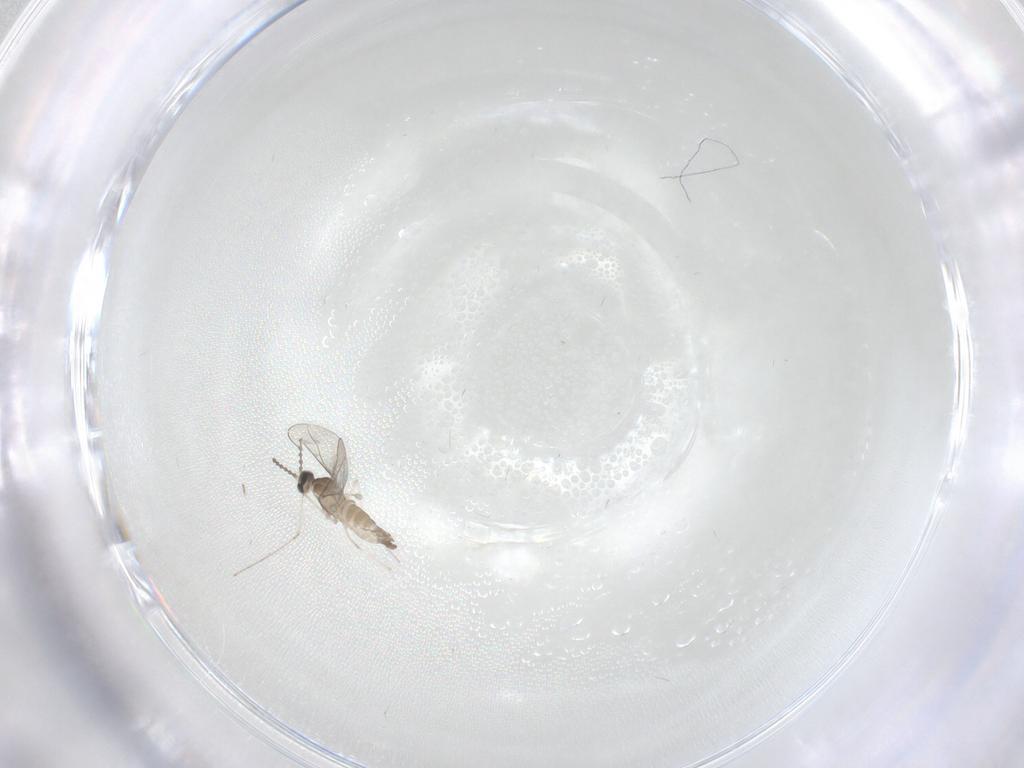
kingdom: Animalia
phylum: Arthropoda
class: Insecta
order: Diptera
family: Cecidomyiidae
